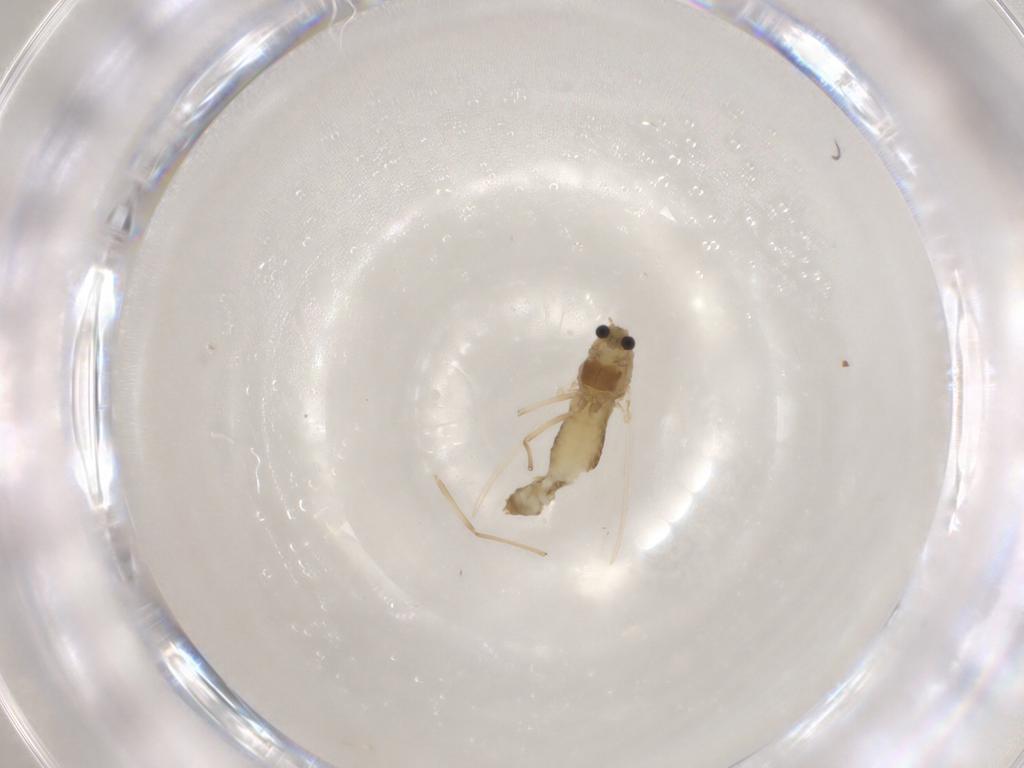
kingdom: Animalia
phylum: Arthropoda
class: Insecta
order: Diptera
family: Chironomidae
